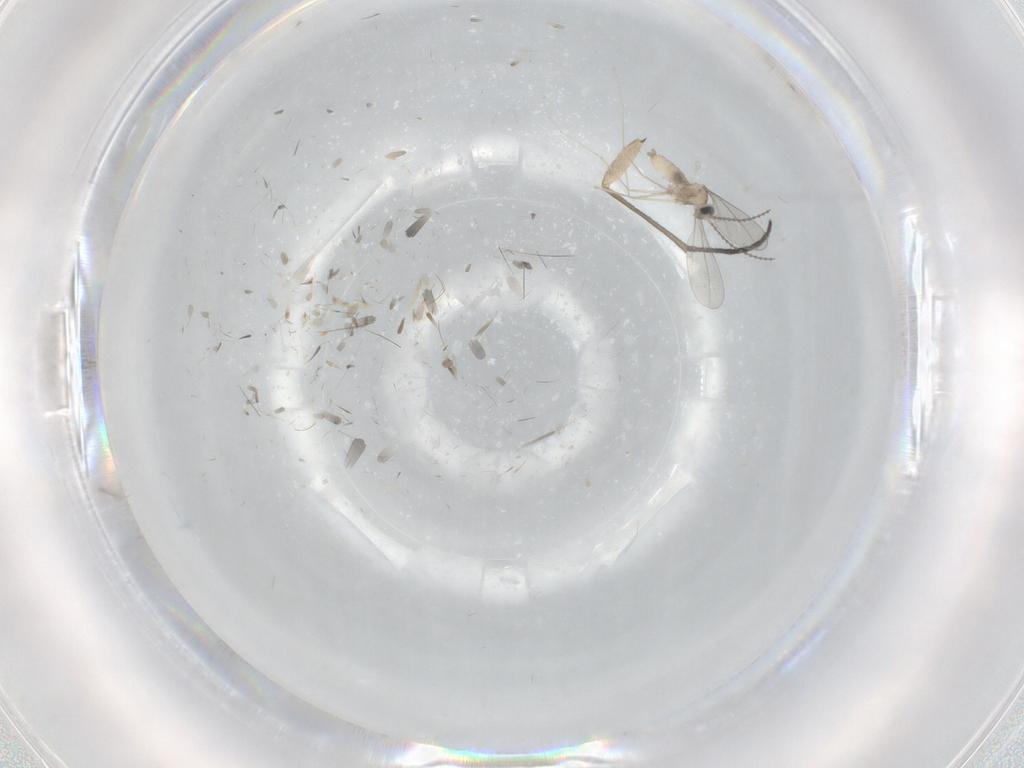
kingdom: Animalia
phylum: Arthropoda
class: Insecta
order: Diptera
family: Sciaridae
